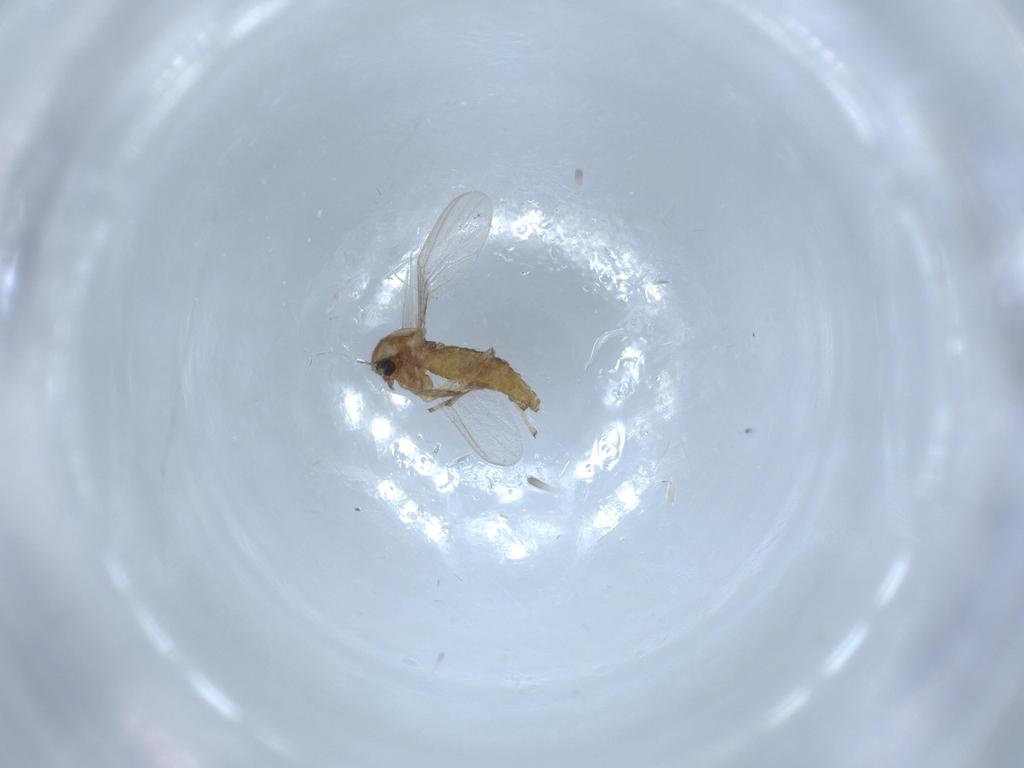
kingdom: Animalia
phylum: Arthropoda
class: Insecta
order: Diptera
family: Chironomidae
